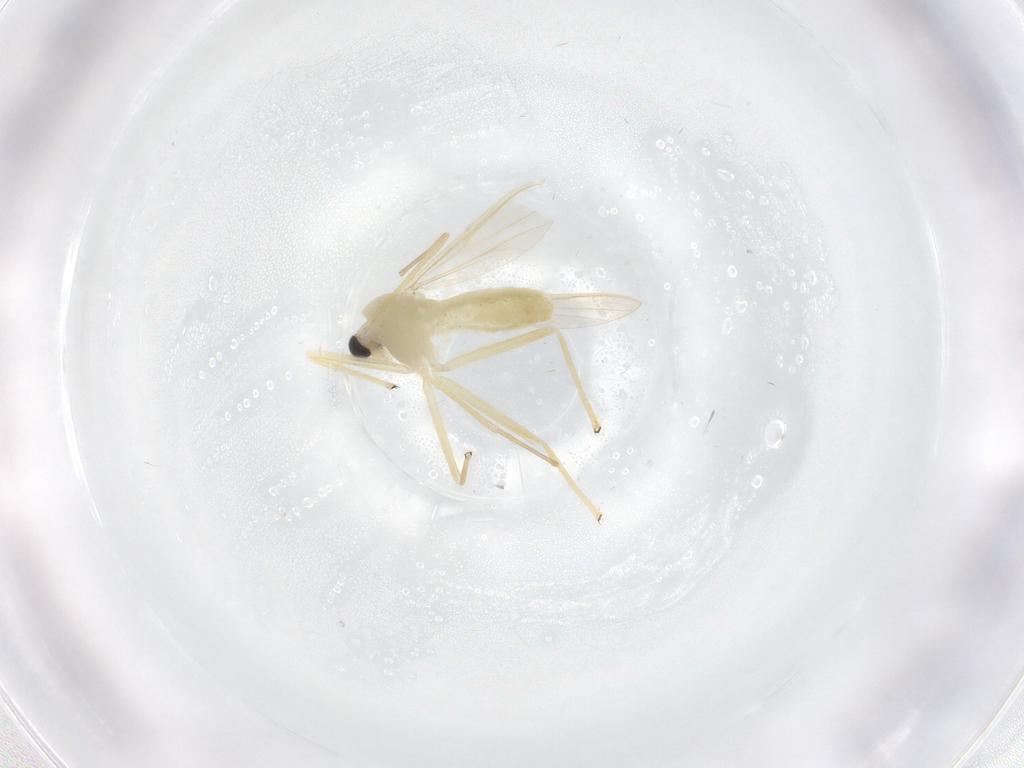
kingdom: Animalia
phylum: Arthropoda
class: Insecta
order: Diptera
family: Chironomidae
